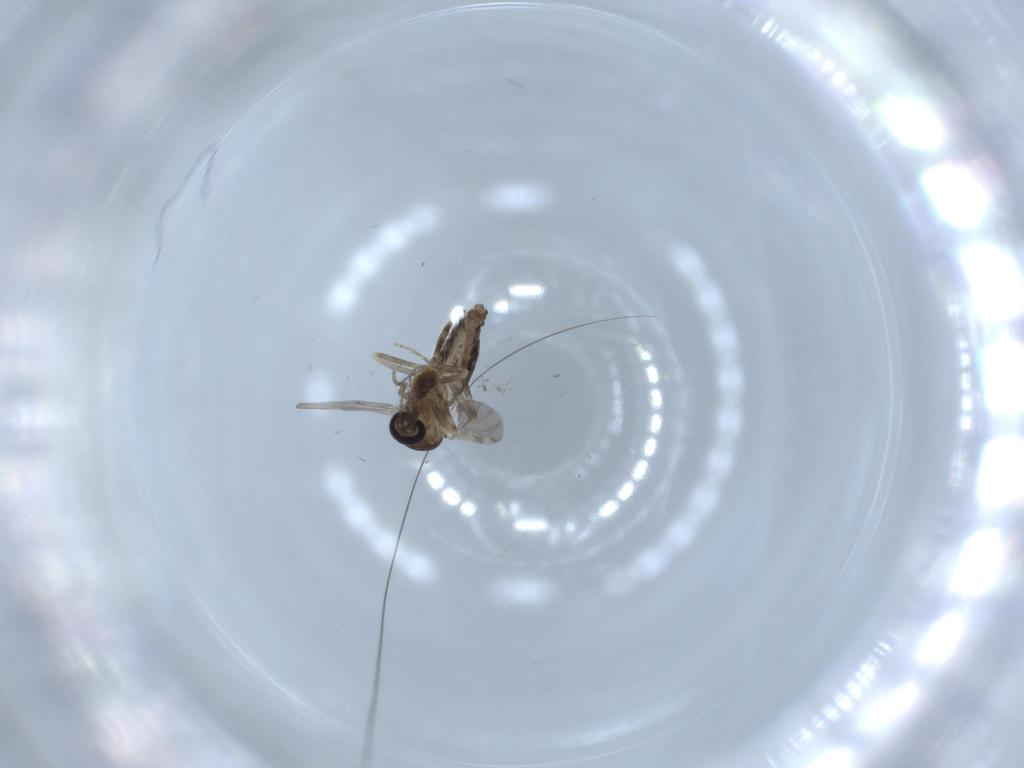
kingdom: Animalia
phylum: Arthropoda
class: Insecta
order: Diptera
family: Ceratopogonidae
